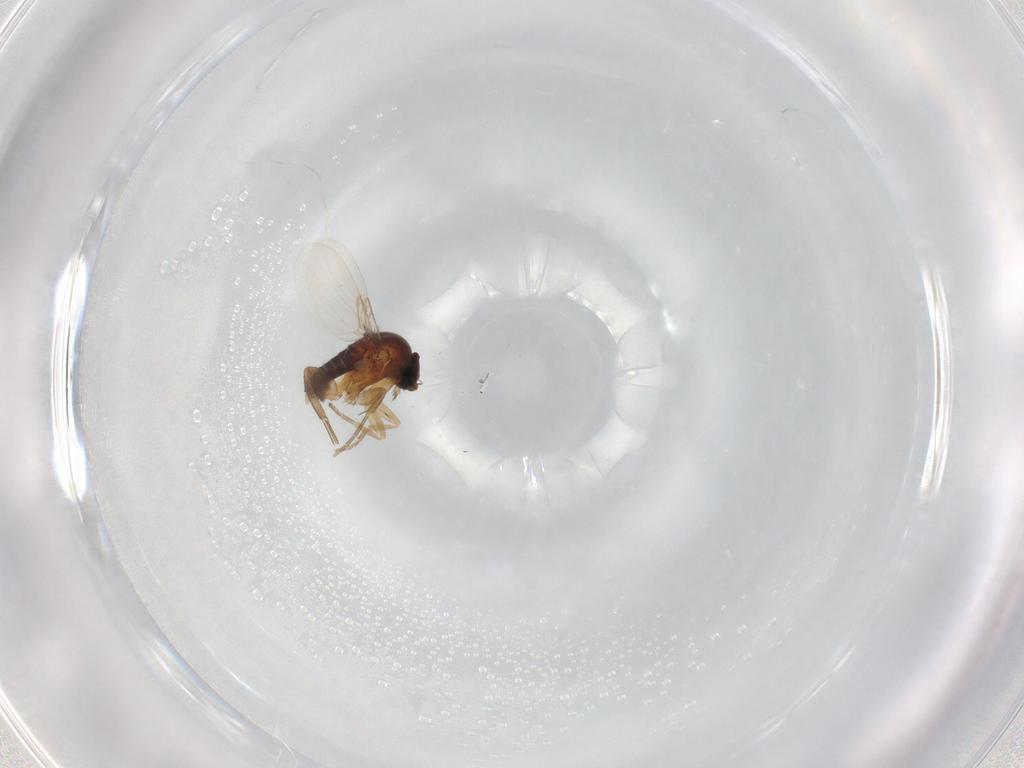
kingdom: Animalia
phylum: Arthropoda
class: Insecta
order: Diptera
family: Phoridae
